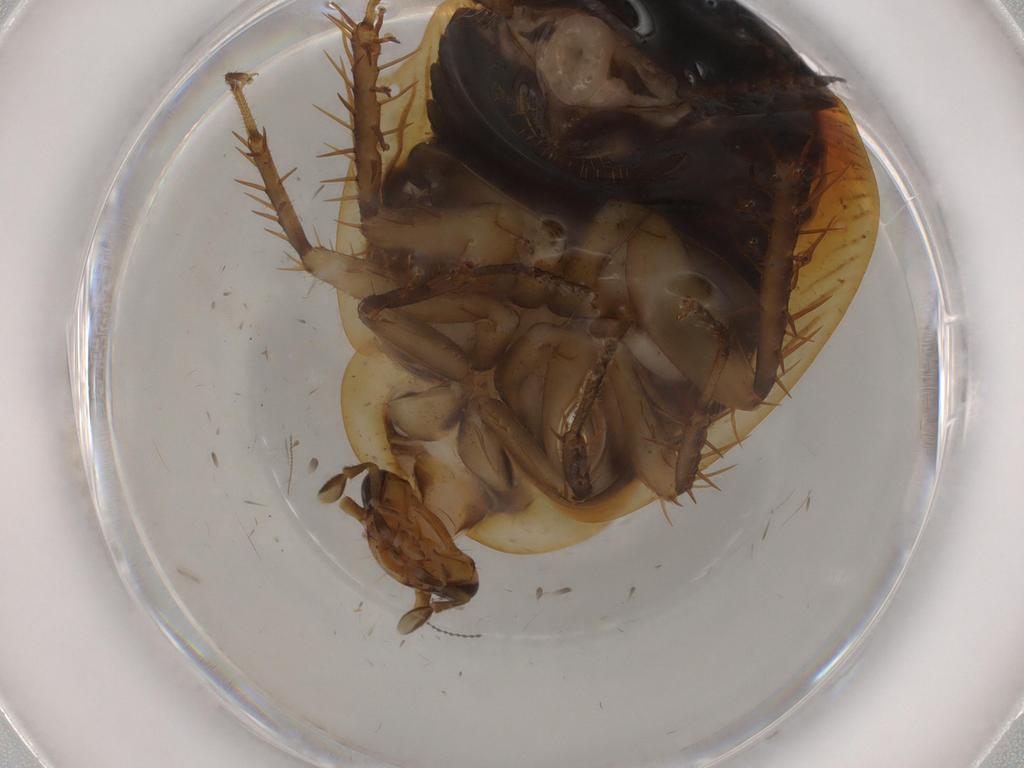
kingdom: Animalia
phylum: Arthropoda
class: Insecta
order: Blattodea
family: Ectobiidae
